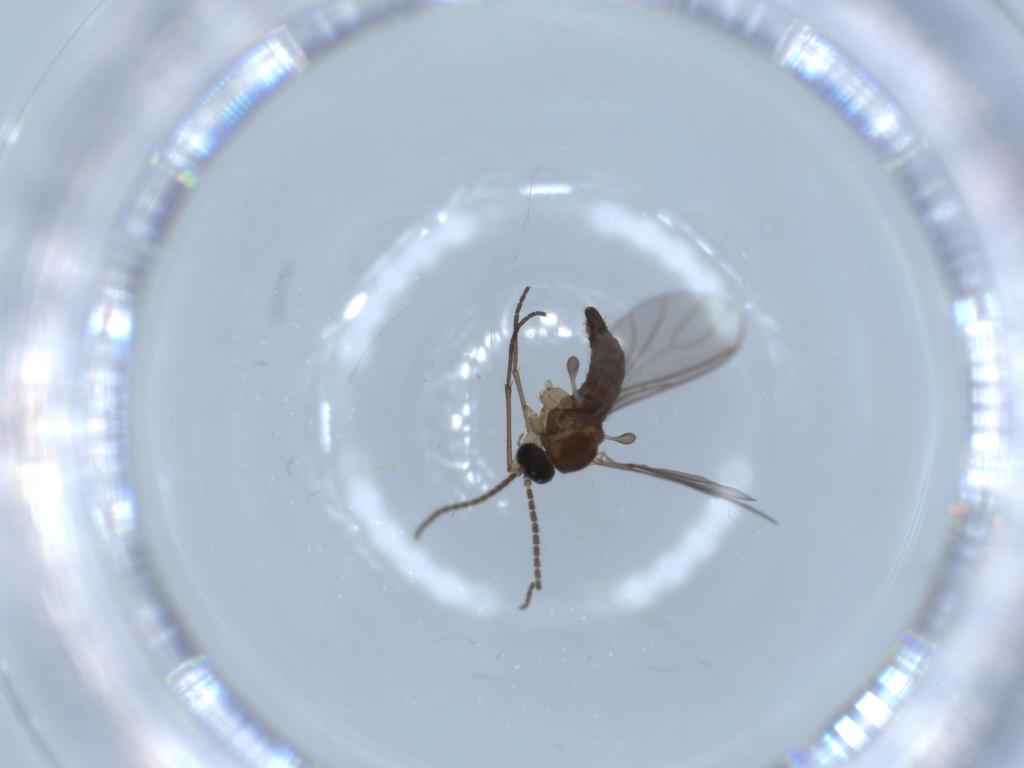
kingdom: Animalia
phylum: Arthropoda
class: Insecta
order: Diptera
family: Sciaridae
